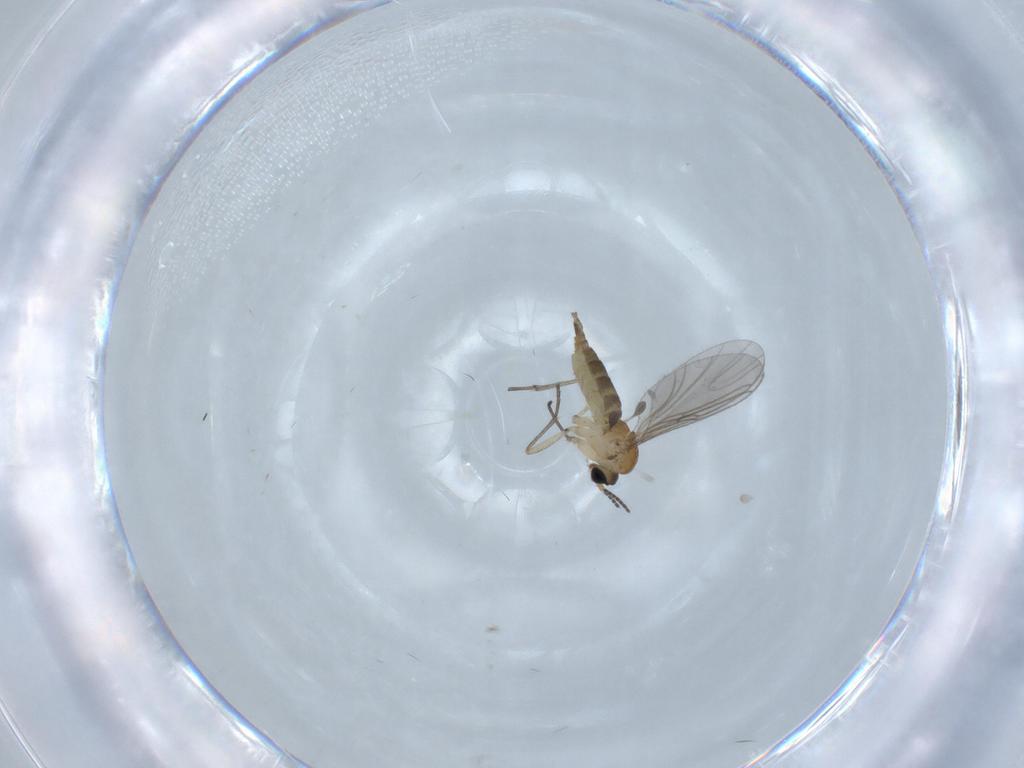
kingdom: Animalia
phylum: Arthropoda
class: Insecta
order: Diptera
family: Sciaridae
